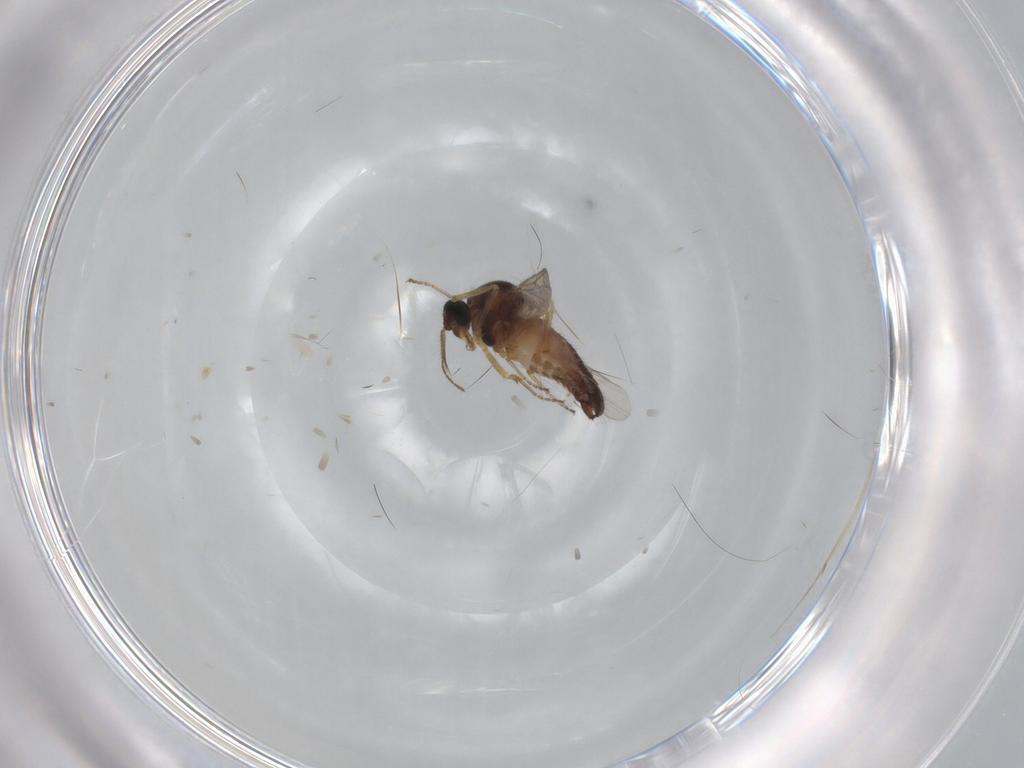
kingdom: Animalia
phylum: Arthropoda
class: Insecta
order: Diptera
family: Ceratopogonidae
